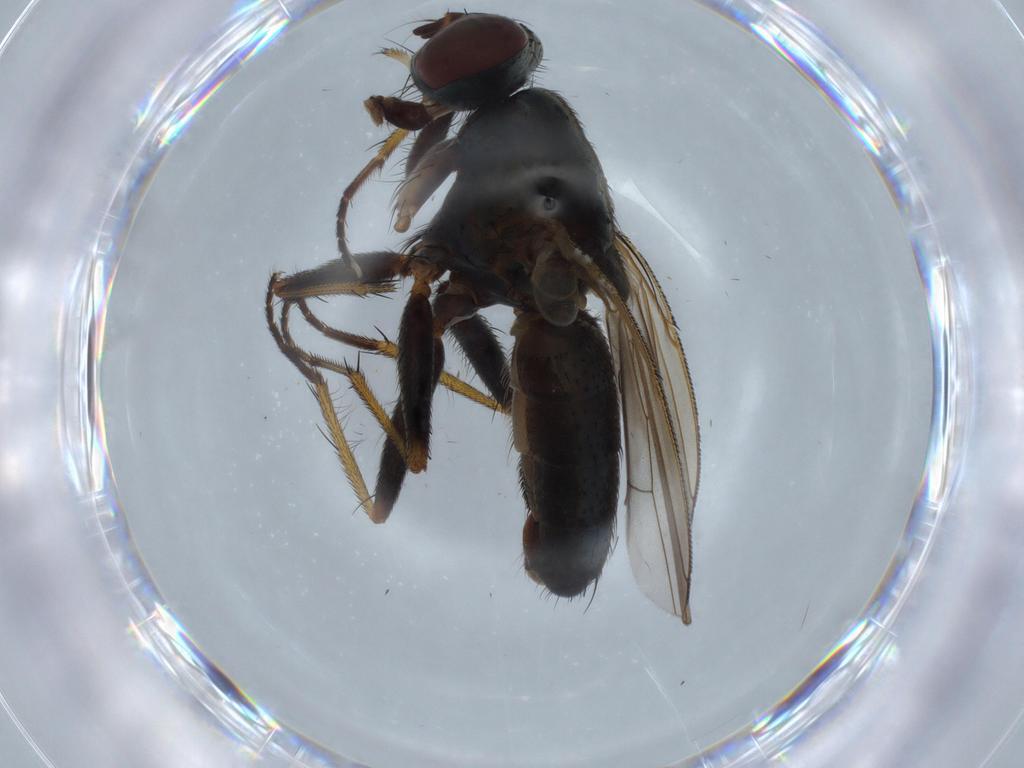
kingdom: Animalia
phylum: Arthropoda
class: Insecta
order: Diptera
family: Muscidae
